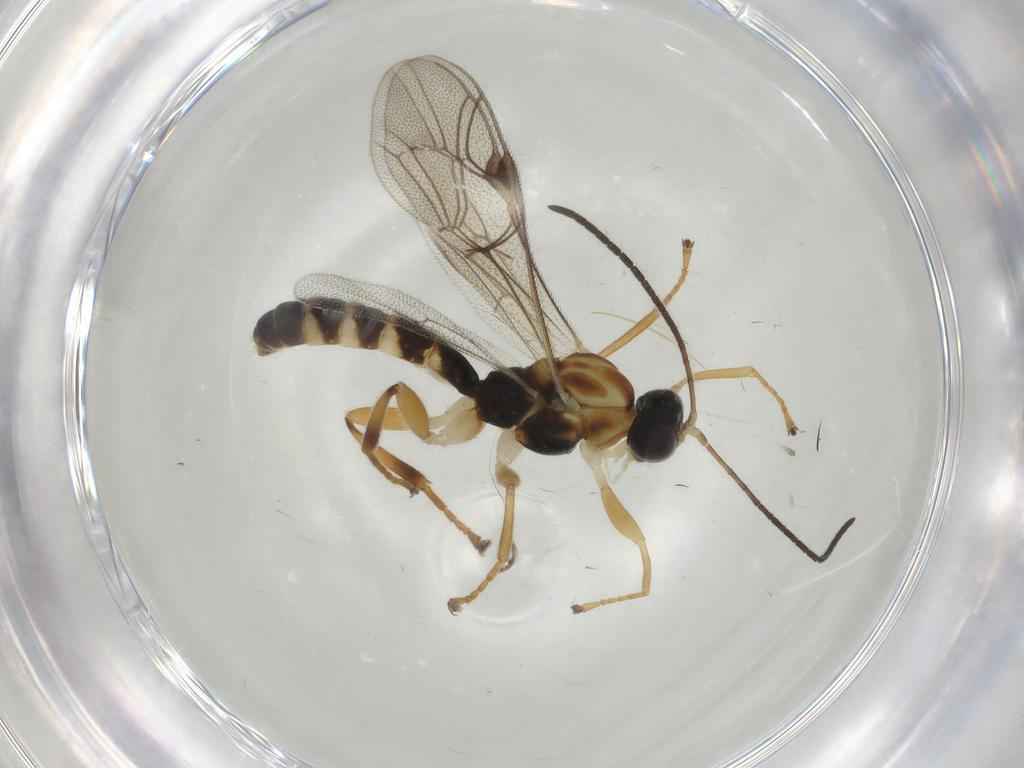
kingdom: Animalia
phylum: Arthropoda
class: Insecta
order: Hymenoptera
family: Ichneumonidae
